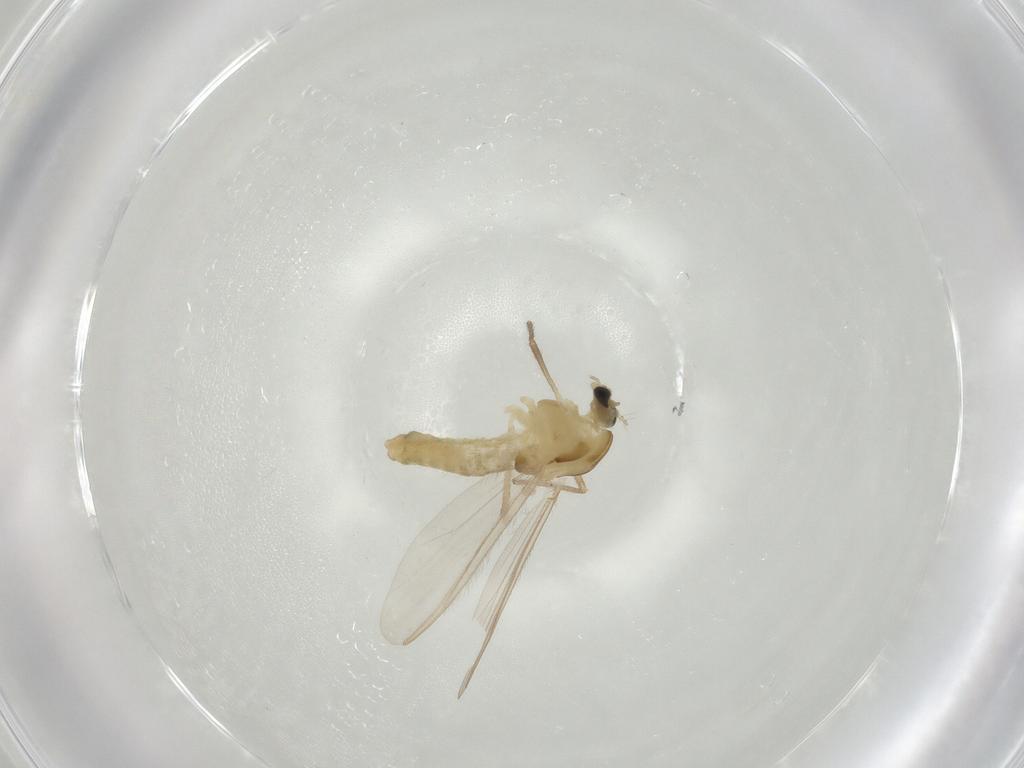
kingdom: Animalia
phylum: Arthropoda
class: Insecta
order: Diptera
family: Chironomidae
